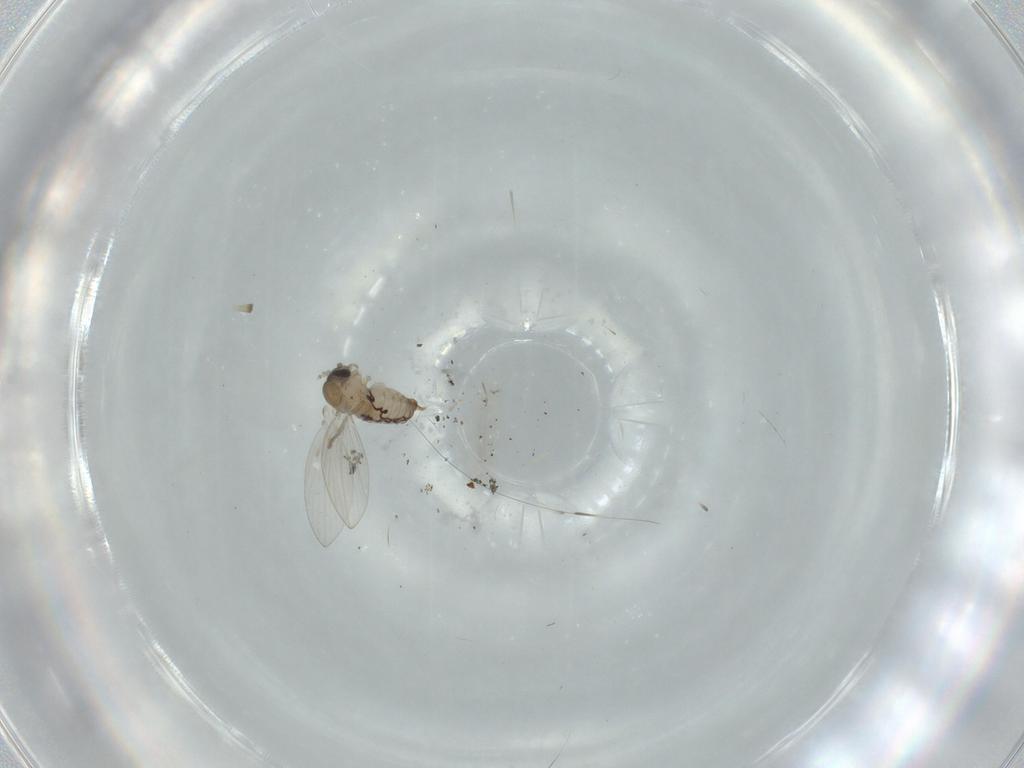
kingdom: Animalia
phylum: Arthropoda
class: Insecta
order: Diptera
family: Psychodidae
